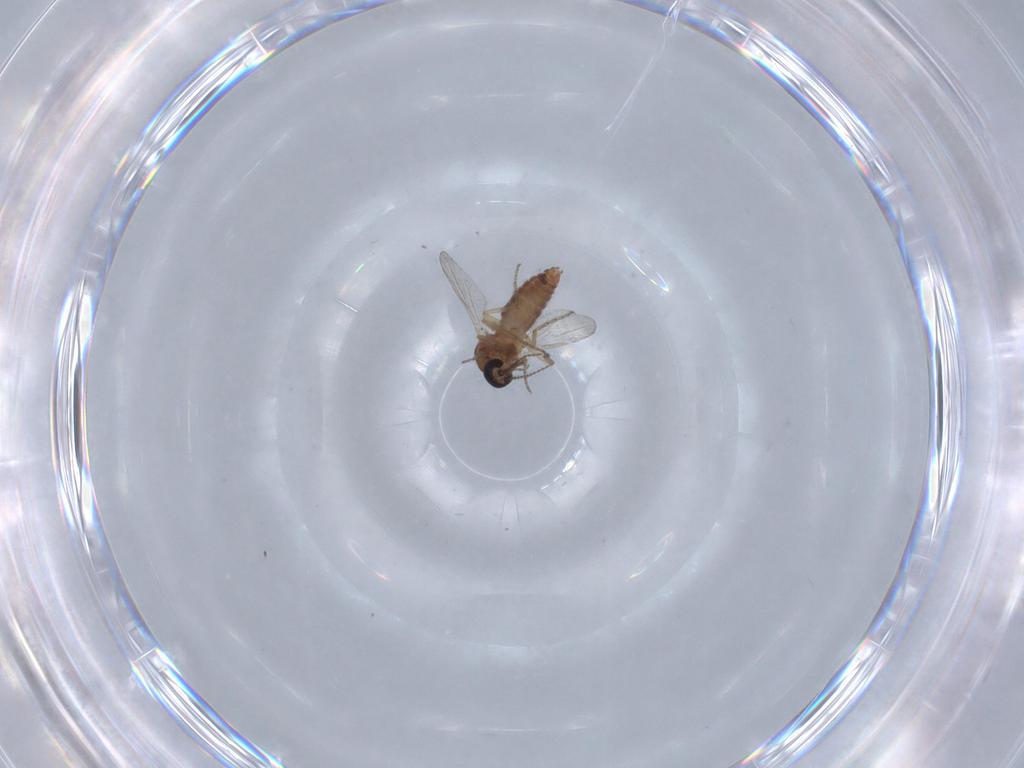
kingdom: Animalia
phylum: Arthropoda
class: Insecta
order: Diptera
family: Ceratopogonidae
